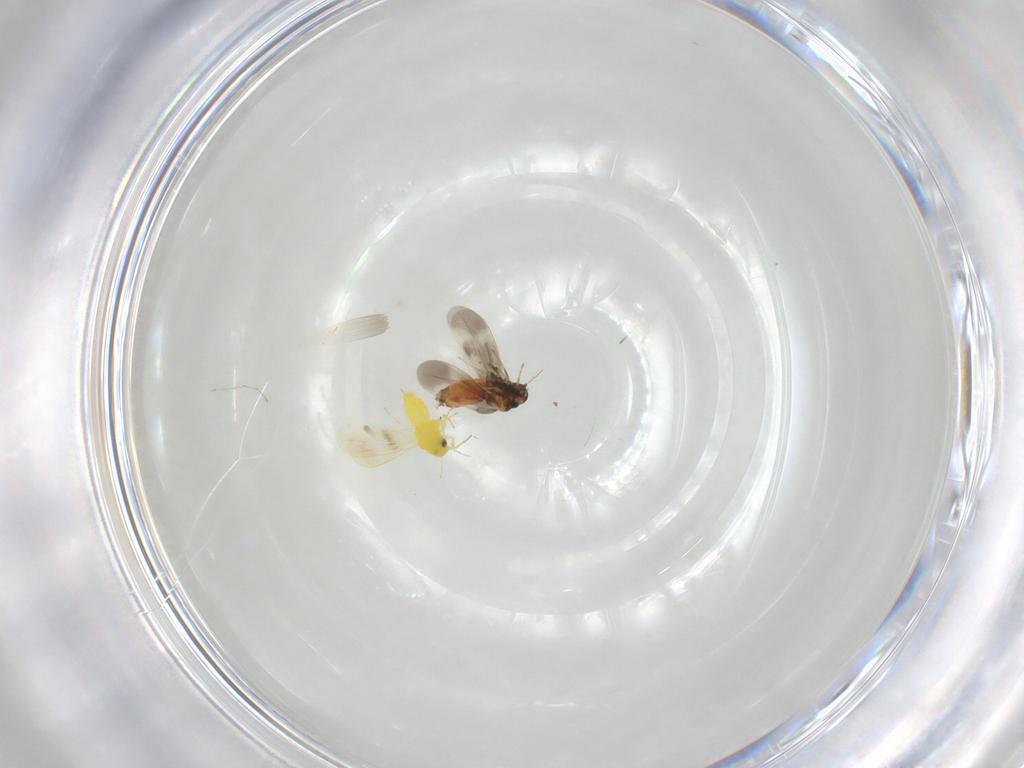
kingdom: Animalia
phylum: Arthropoda
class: Insecta
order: Hemiptera
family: Aleyrodidae
